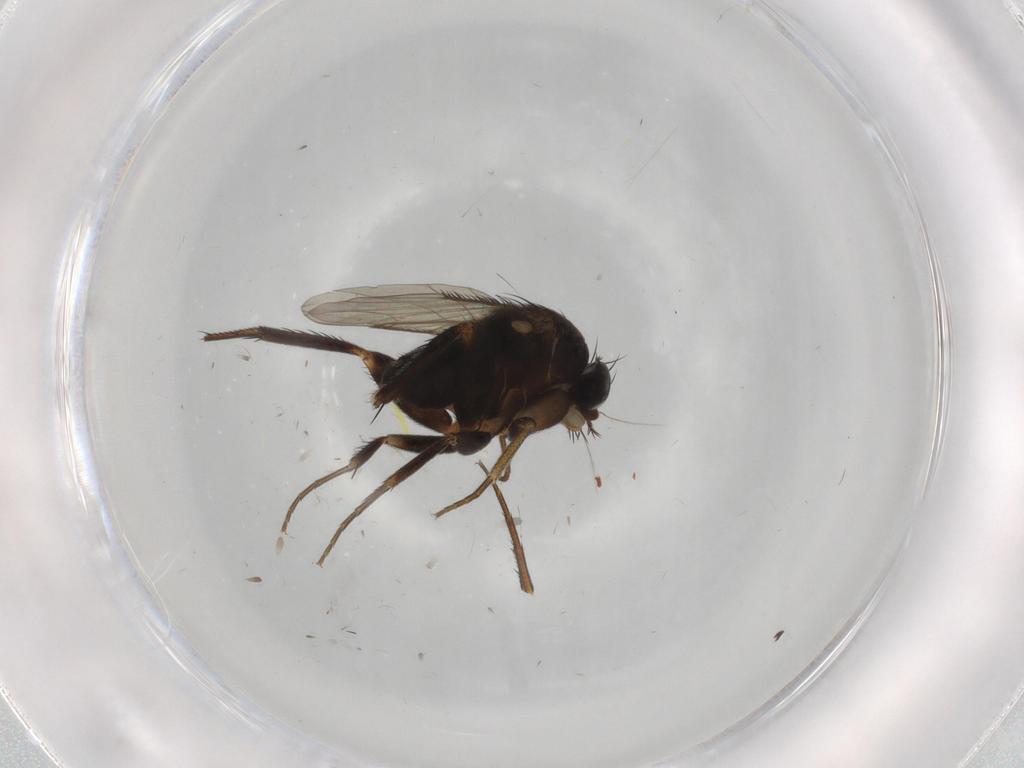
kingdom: Animalia
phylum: Arthropoda
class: Insecta
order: Diptera
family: Phoridae
